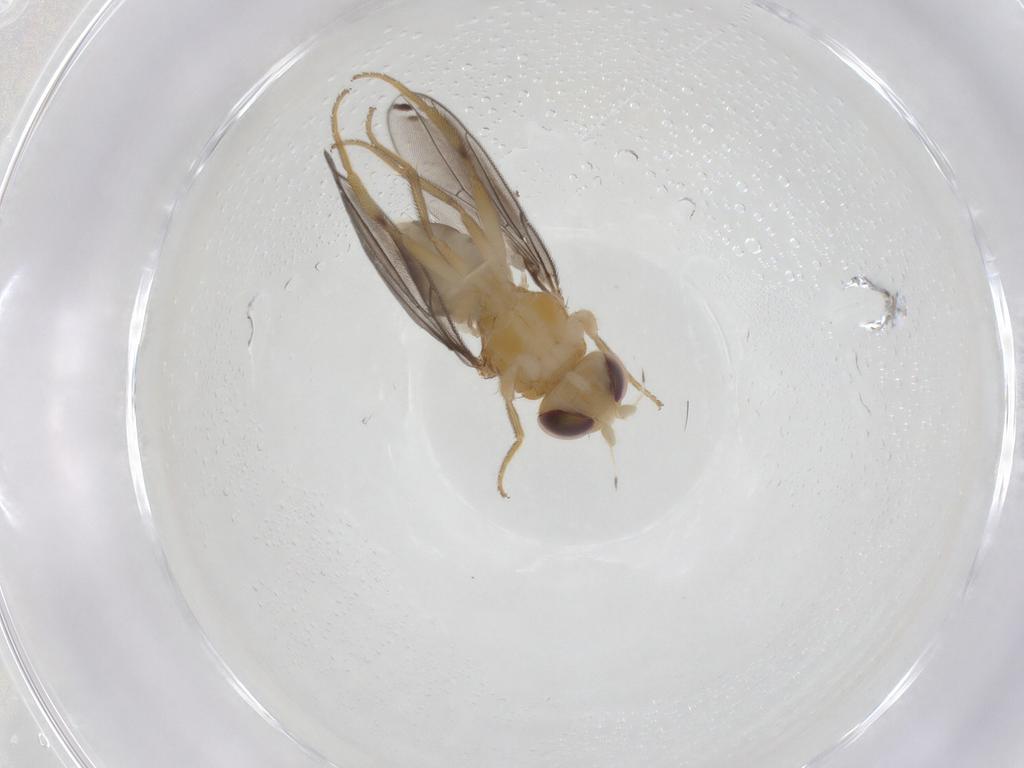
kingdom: Animalia
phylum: Arthropoda
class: Insecta
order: Diptera
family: Chloropidae
